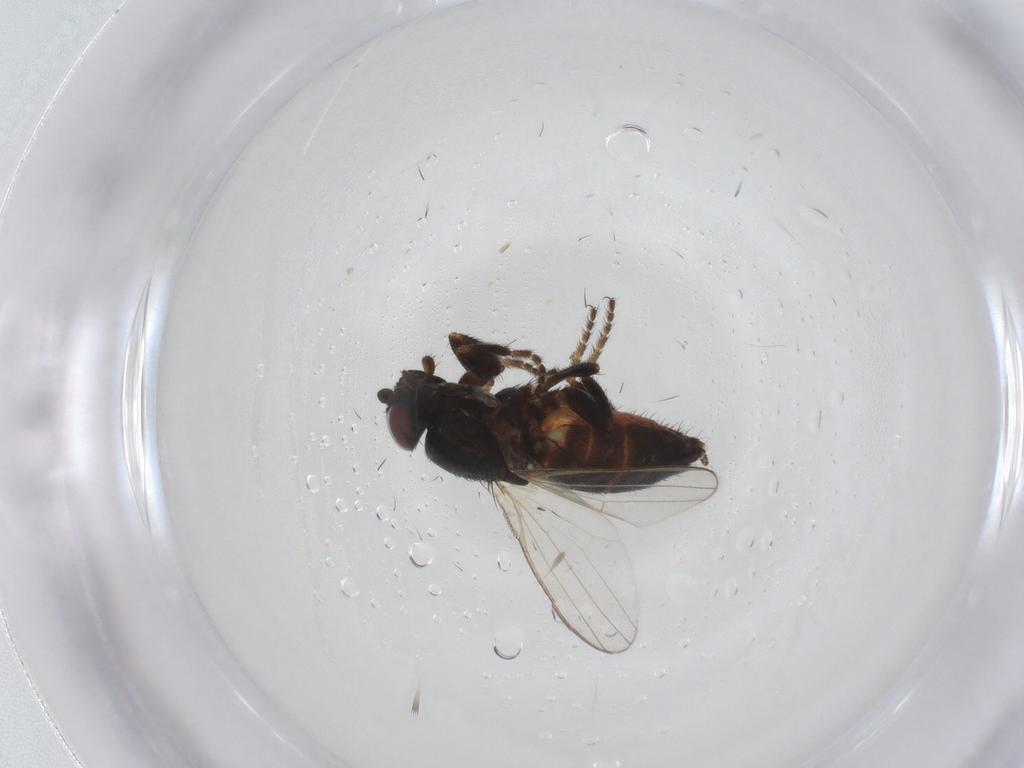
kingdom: Animalia
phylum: Arthropoda
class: Insecta
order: Diptera
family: Milichiidae
